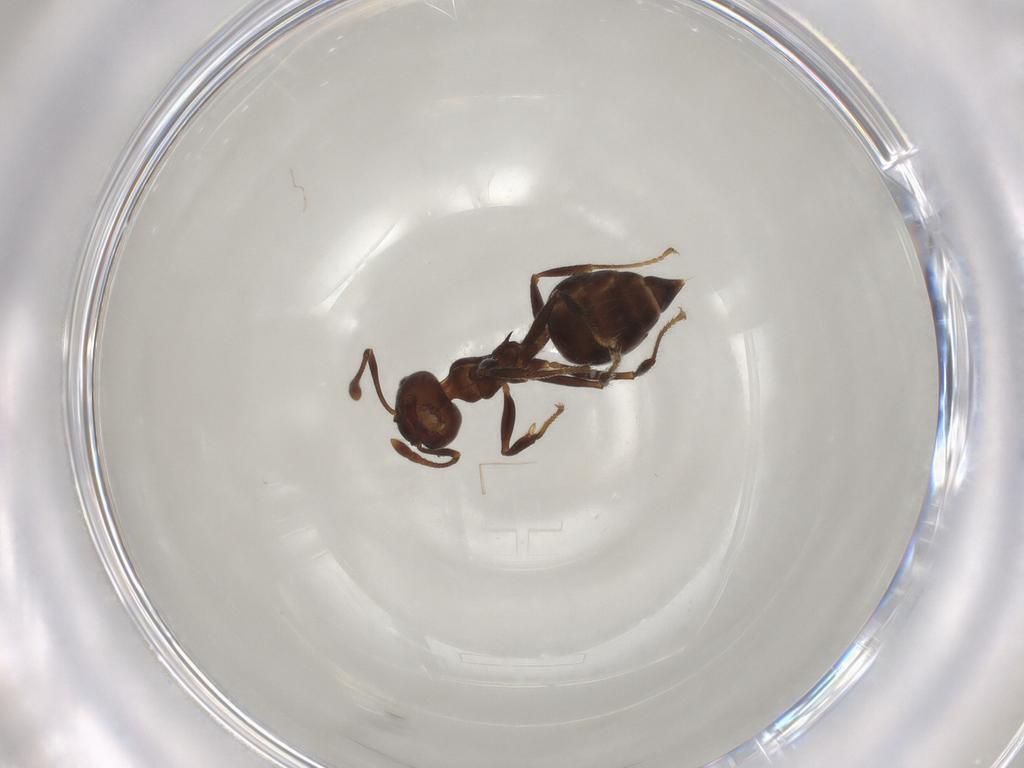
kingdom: Animalia
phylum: Arthropoda
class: Insecta
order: Hymenoptera
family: Formicidae
